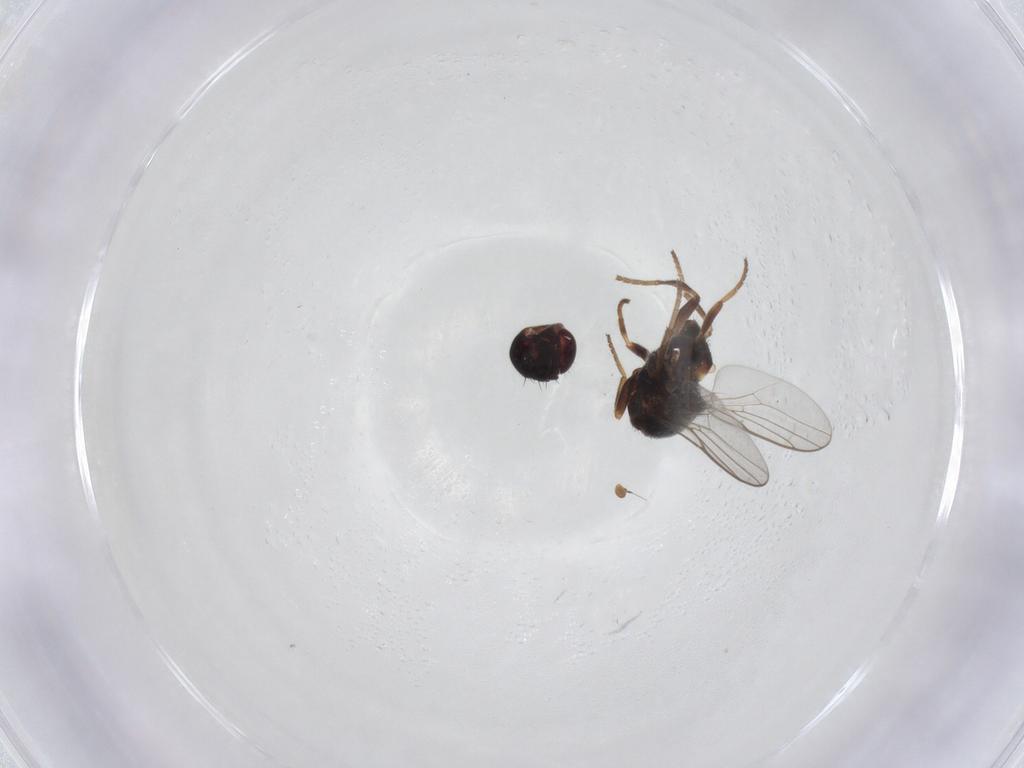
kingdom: Animalia
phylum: Arthropoda
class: Insecta
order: Diptera
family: Chloropidae
